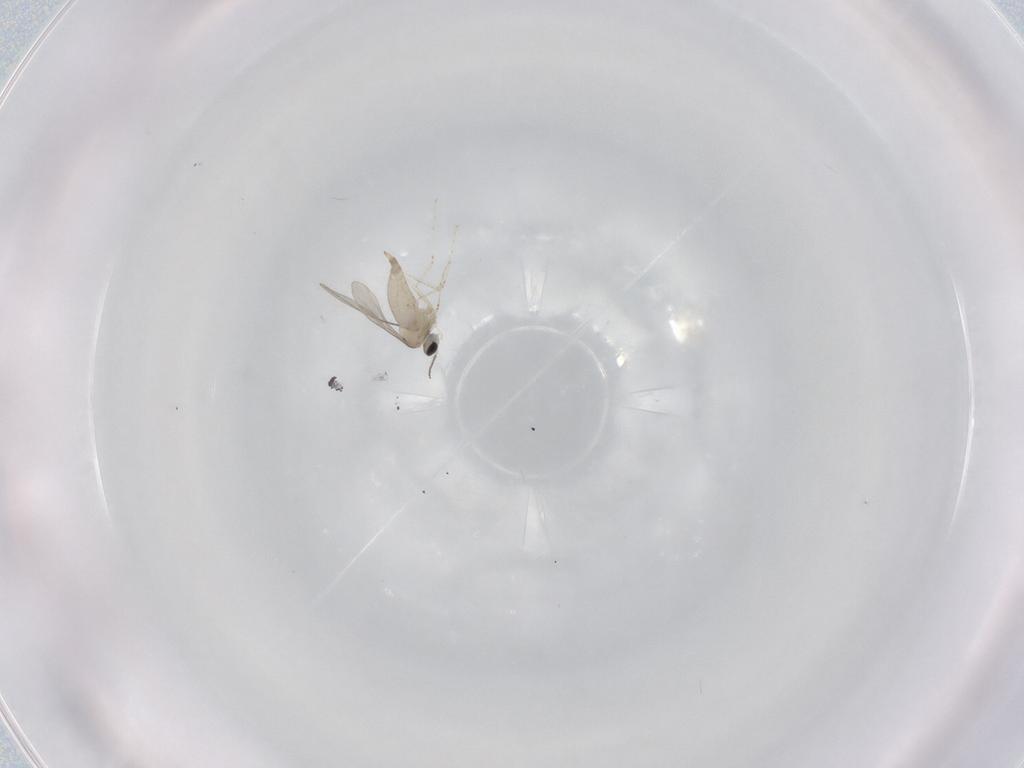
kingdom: Animalia
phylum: Arthropoda
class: Insecta
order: Diptera
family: Cecidomyiidae
